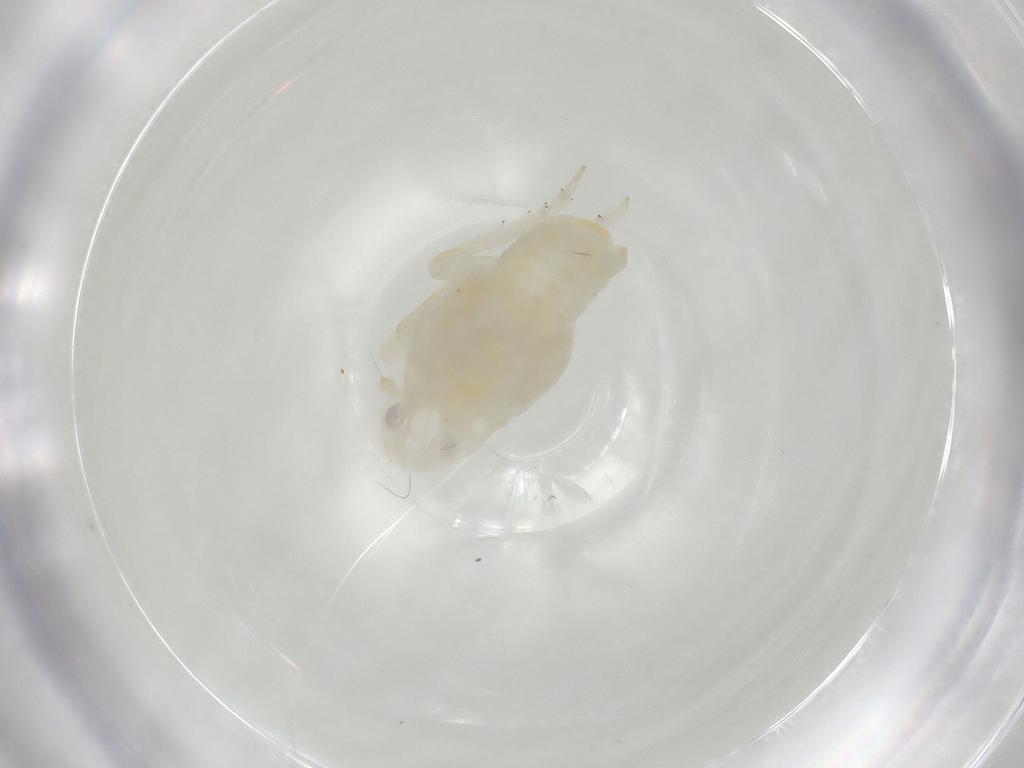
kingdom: Animalia
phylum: Arthropoda
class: Insecta
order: Hemiptera
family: Flatidae
